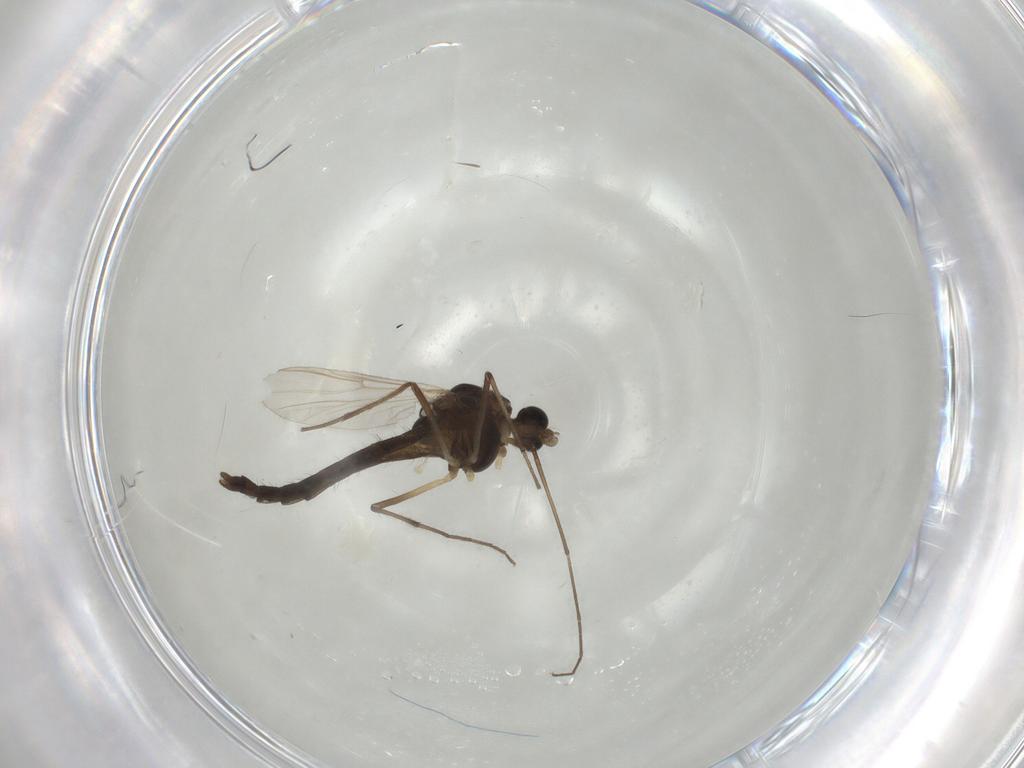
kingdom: Animalia
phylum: Arthropoda
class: Insecta
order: Diptera
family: Chironomidae
